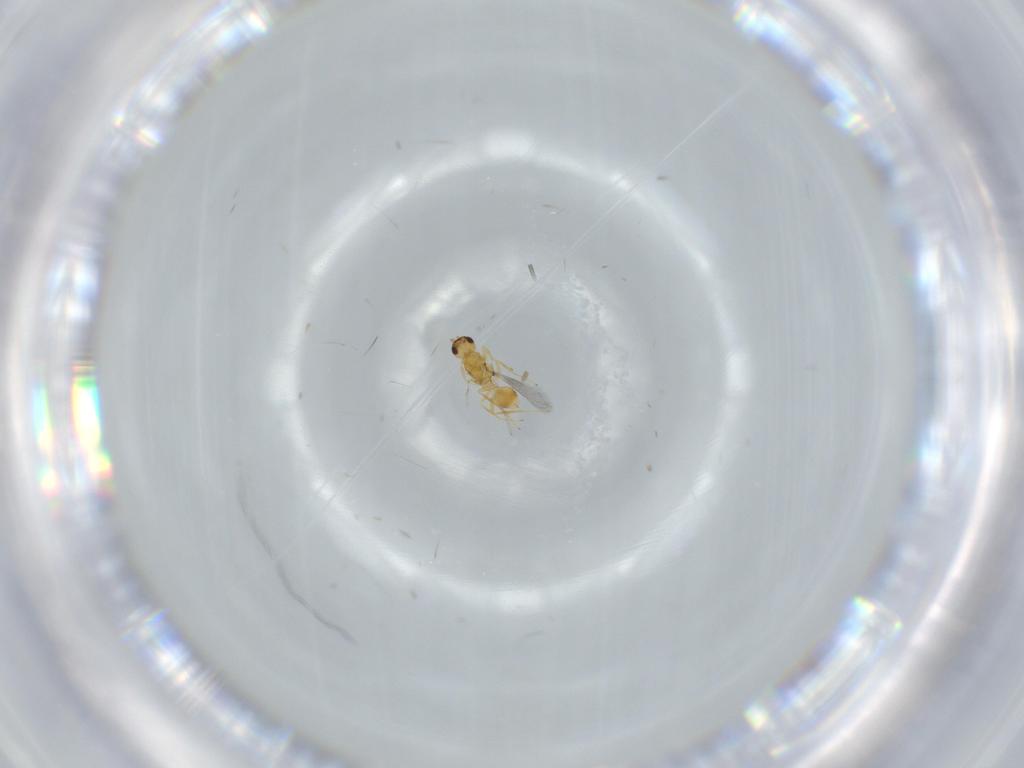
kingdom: Animalia
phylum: Arthropoda
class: Insecta
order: Hymenoptera
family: Mymaridae
